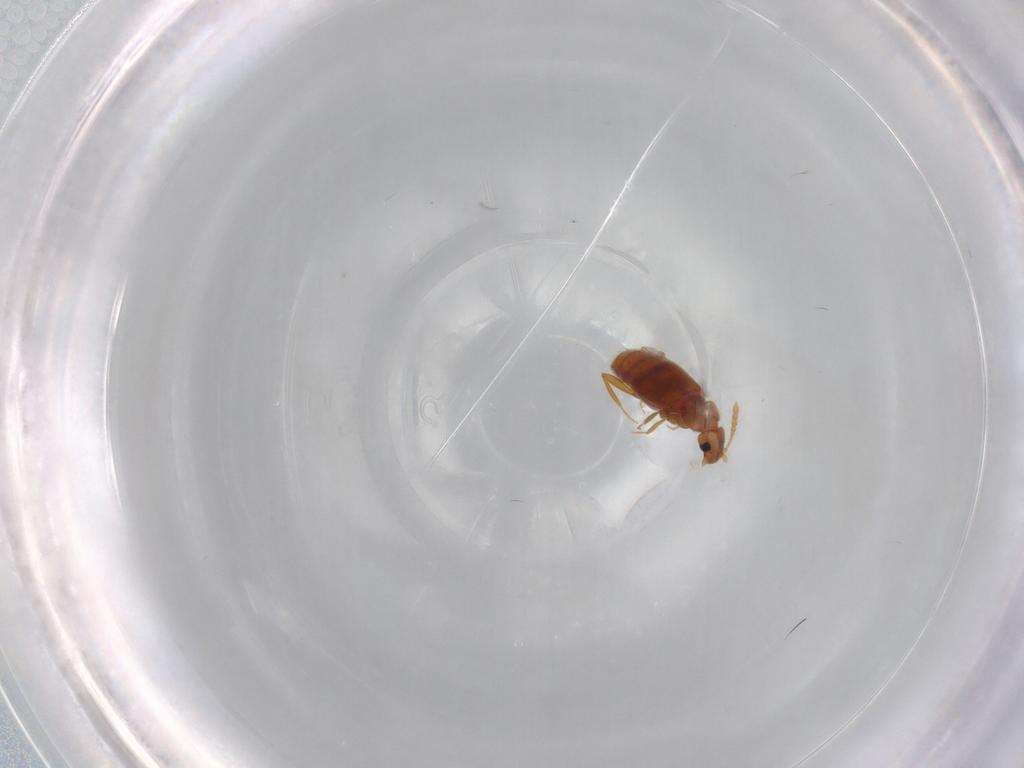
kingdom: Animalia
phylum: Arthropoda
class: Insecta
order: Coleoptera
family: Staphylinidae
